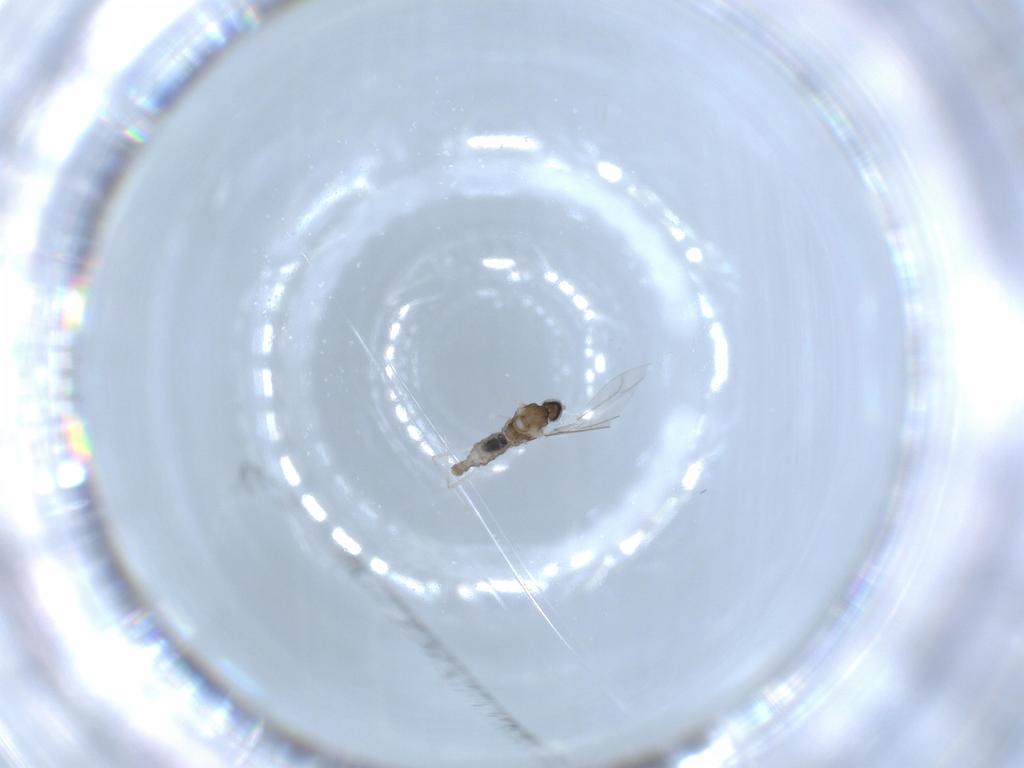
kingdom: Animalia
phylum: Arthropoda
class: Insecta
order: Diptera
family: Cecidomyiidae
